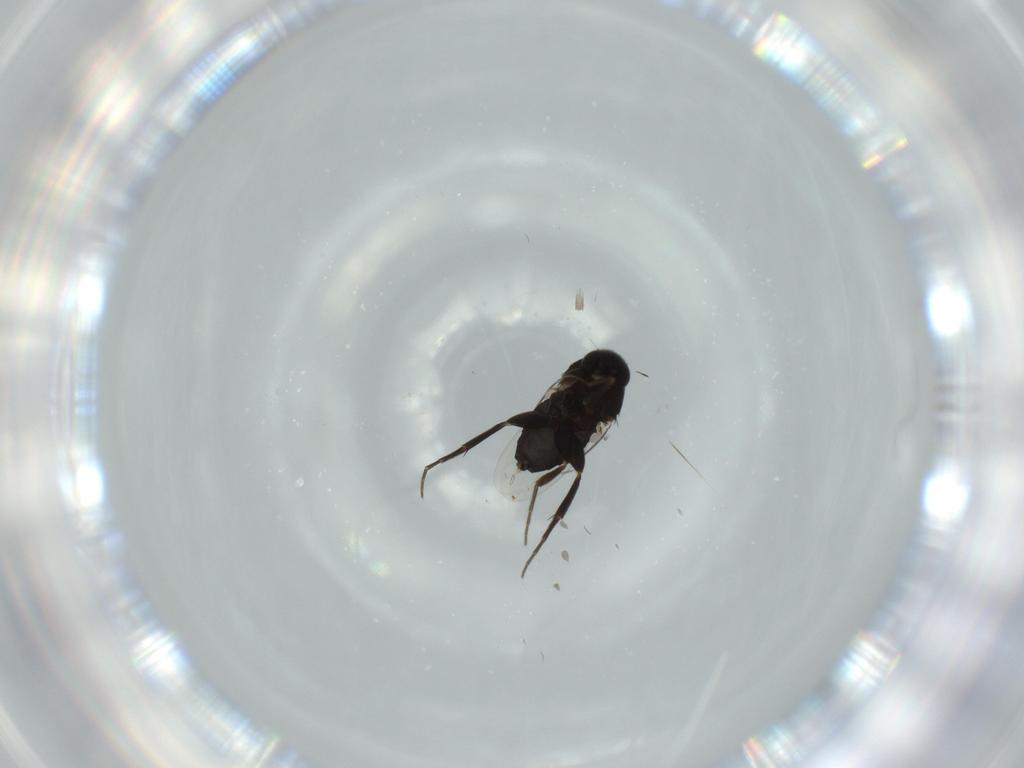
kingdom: Animalia
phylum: Arthropoda
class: Insecta
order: Diptera
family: Phoridae
